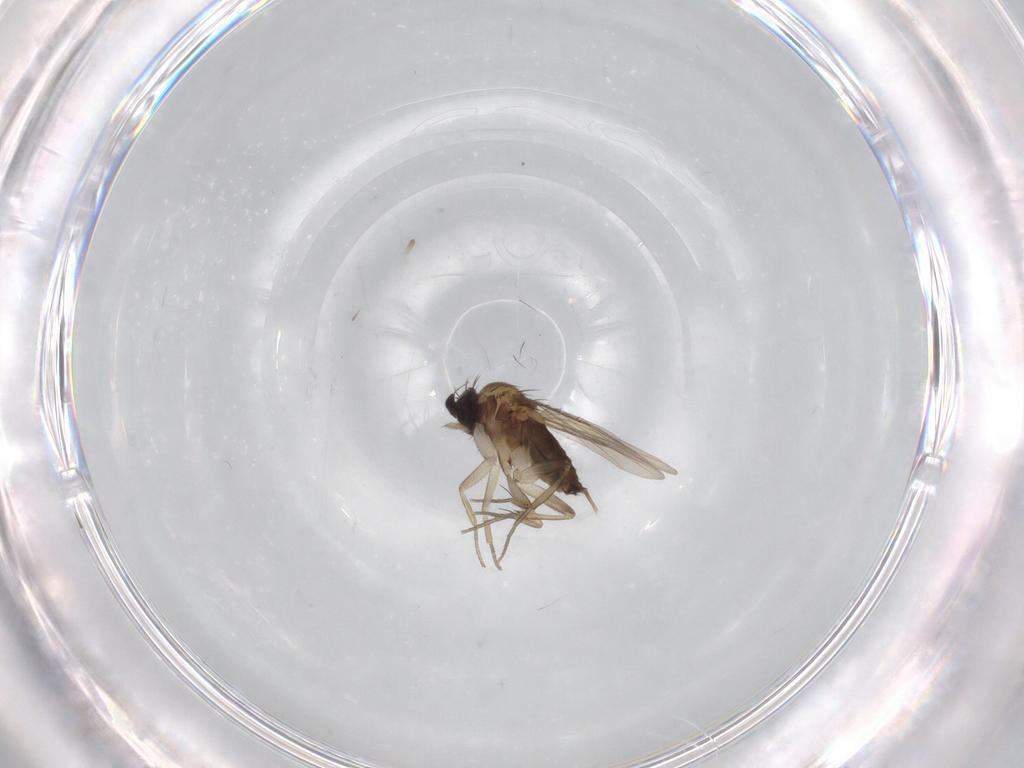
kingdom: Animalia
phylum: Arthropoda
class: Insecta
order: Diptera
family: Phoridae
